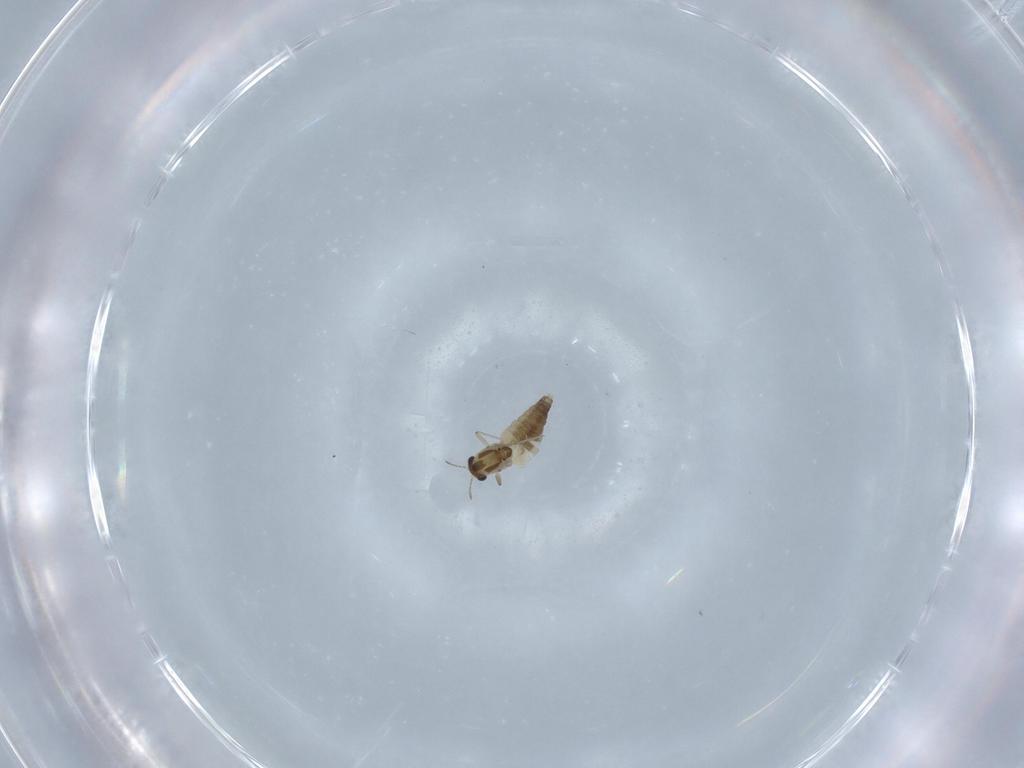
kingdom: Animalia
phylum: Arthropoda
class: Insecta
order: Diptera
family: Chironomidae
